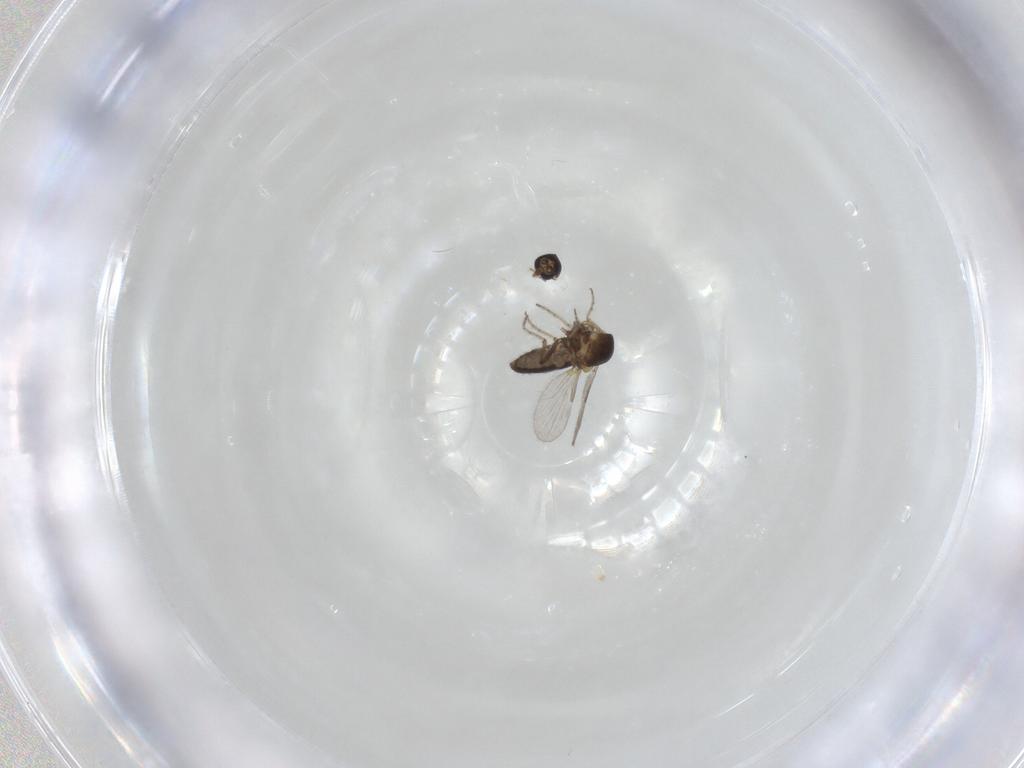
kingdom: Animalia
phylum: Arthropoda
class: Insecta
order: Diptera
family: Ceratopogonidae
